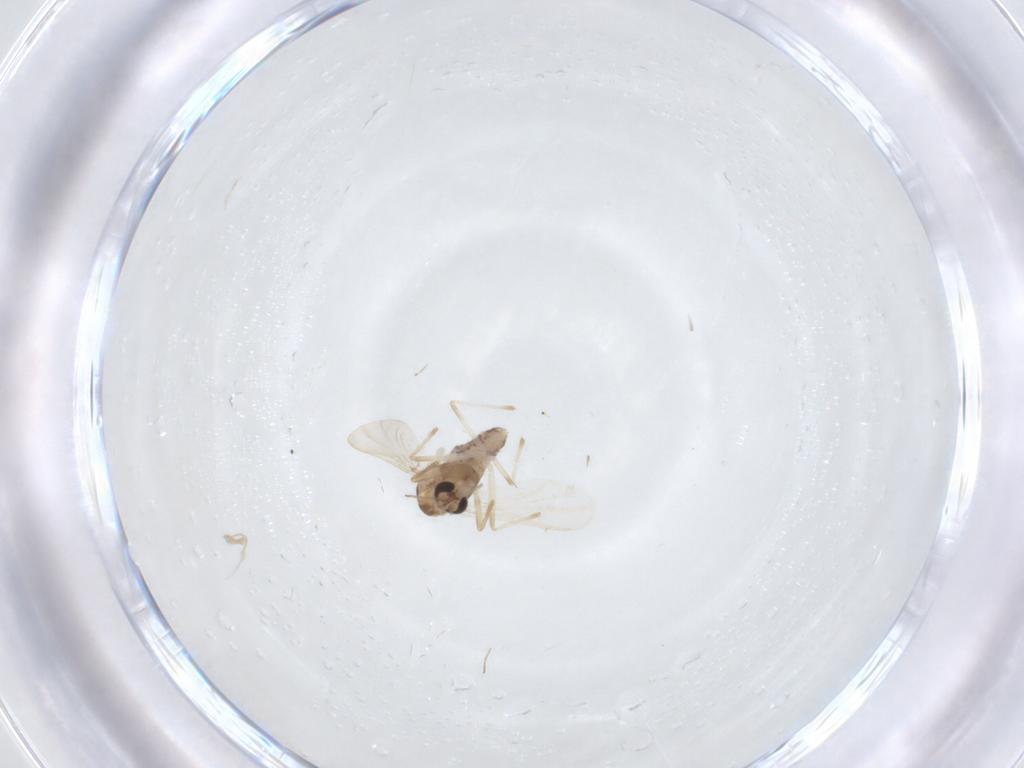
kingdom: Animalia
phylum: Arthropoda
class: Insecta
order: Diptera
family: Chironomidae
